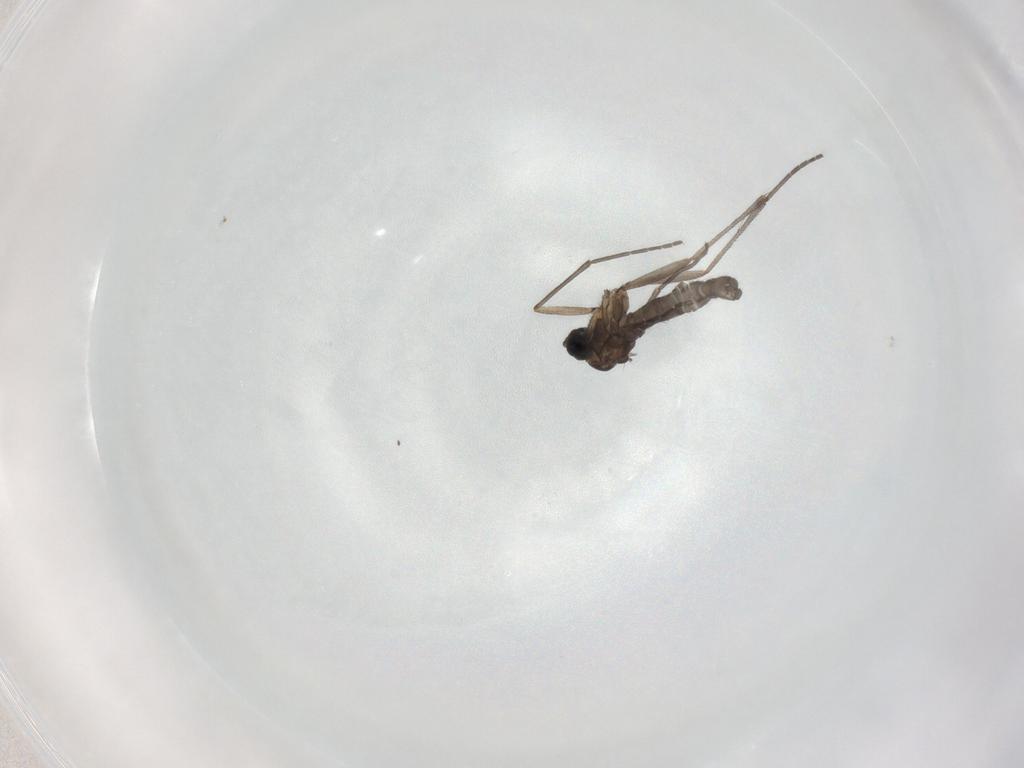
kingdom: Animalia
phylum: Arthropoda
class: Insecta
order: Diptera
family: Sciaridae
